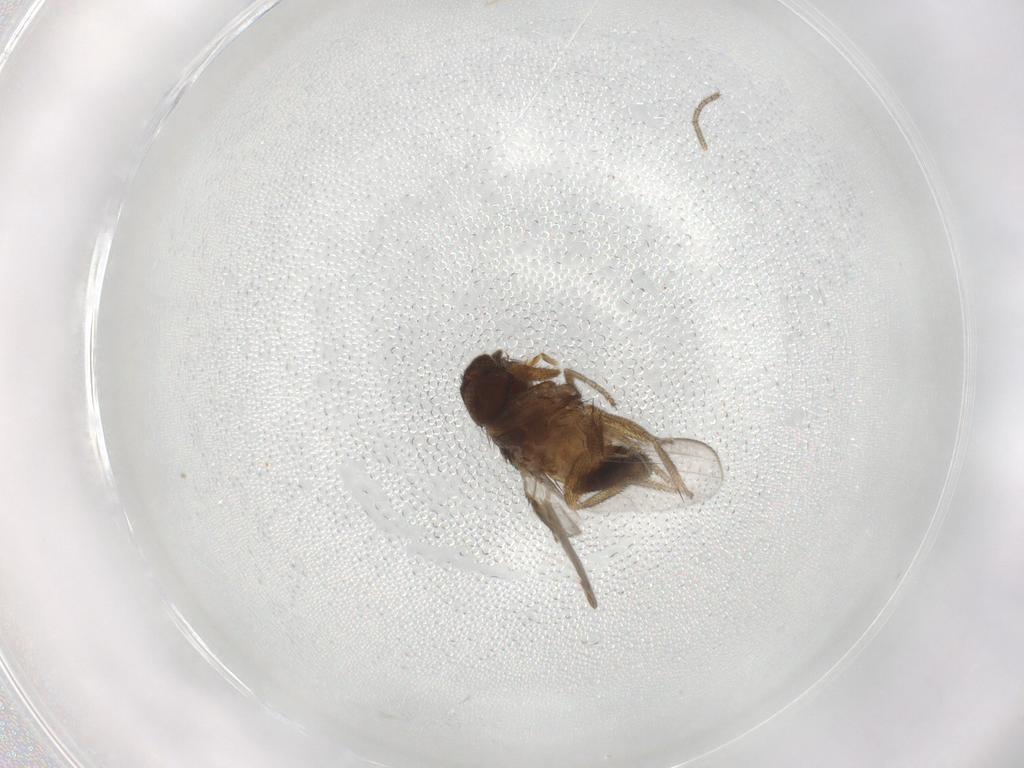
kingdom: Animalia
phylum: Arthropoda
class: Insecta
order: Diptera
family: Milichiidae
